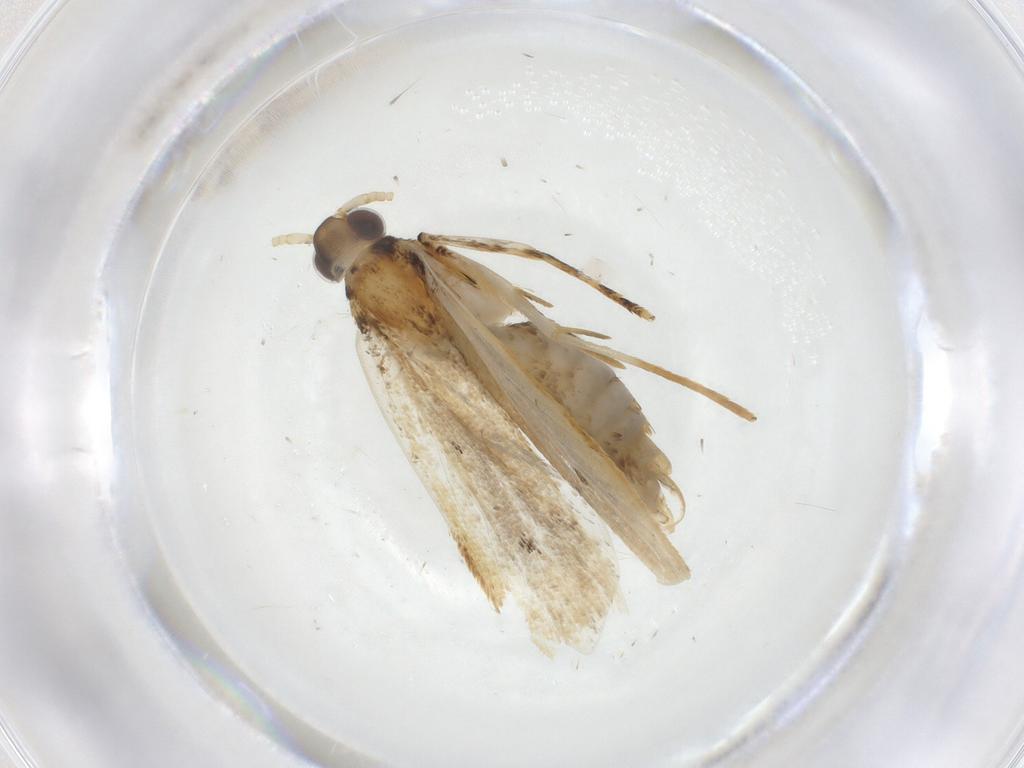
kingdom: Animalia
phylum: Arthropoda
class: Insecta
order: Lepidoptera
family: Lecithoceridae
